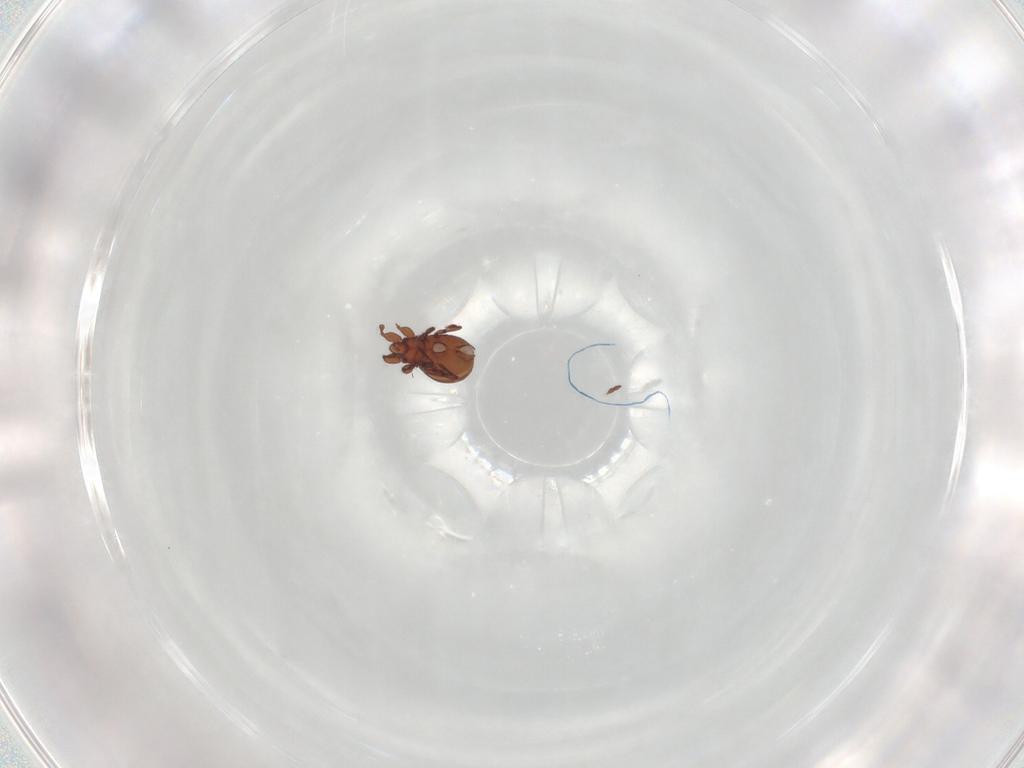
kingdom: Animalia
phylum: Arthropoda
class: Arachnida
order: Sarcoptiformes
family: Eremaeidae
